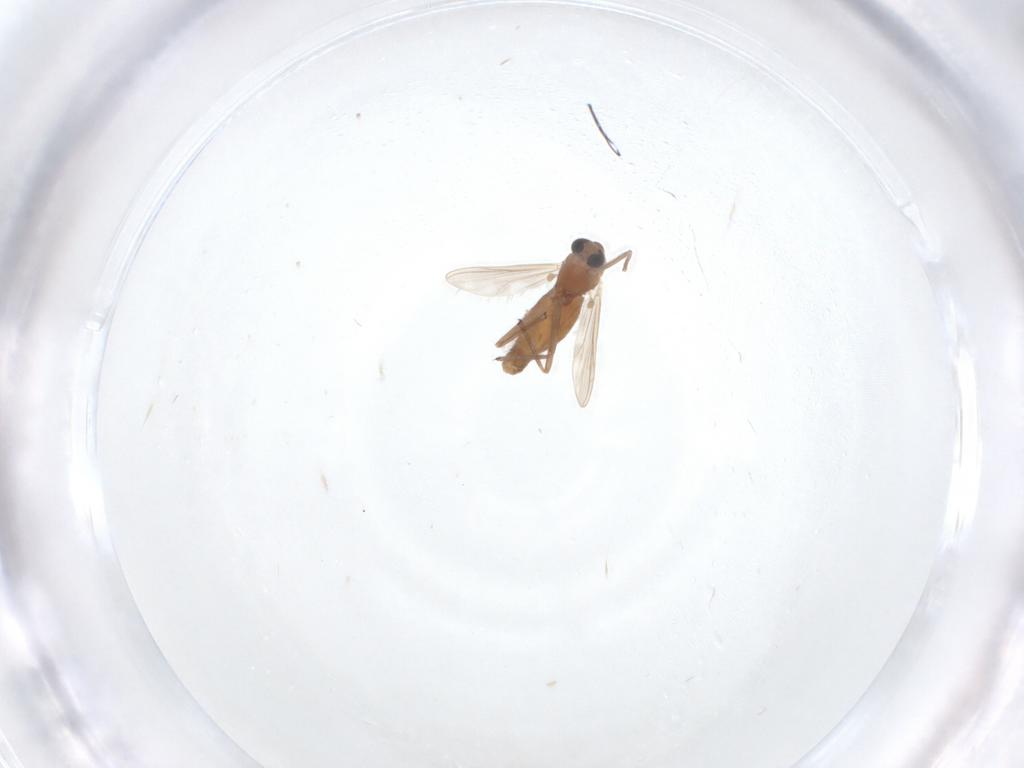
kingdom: Animalia
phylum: Arthropoda
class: Insecta
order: Diptera
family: Chironomidae
